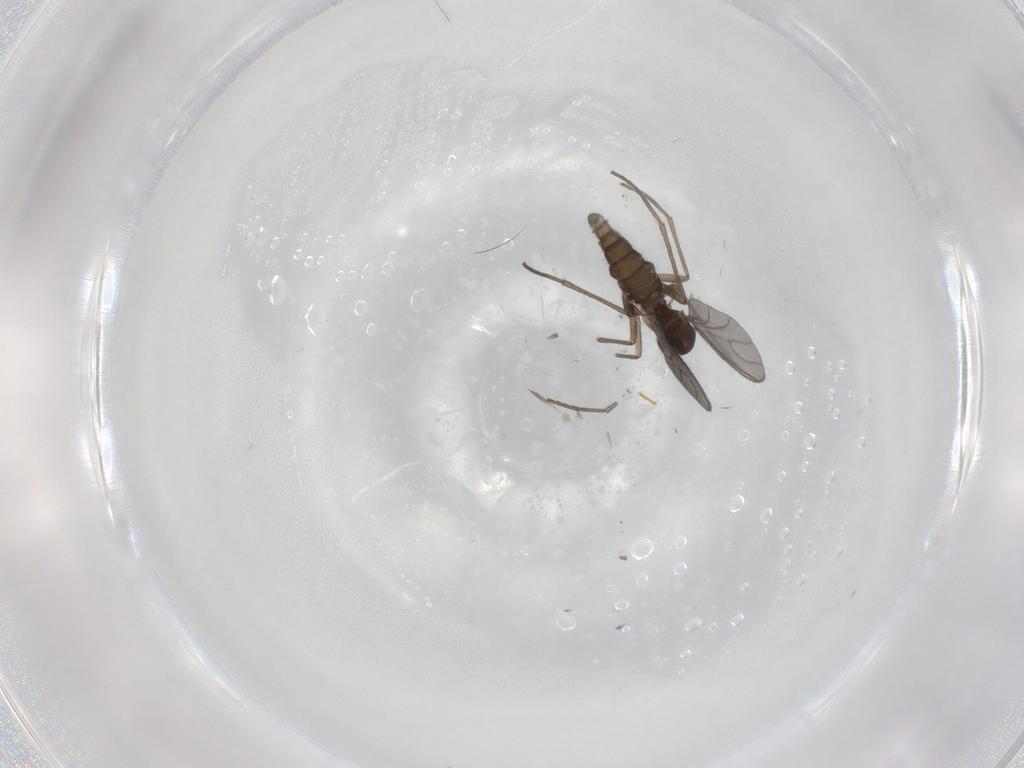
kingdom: Animalia
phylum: Arthropoda
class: Insecta
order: Diptera
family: Sciaridae
